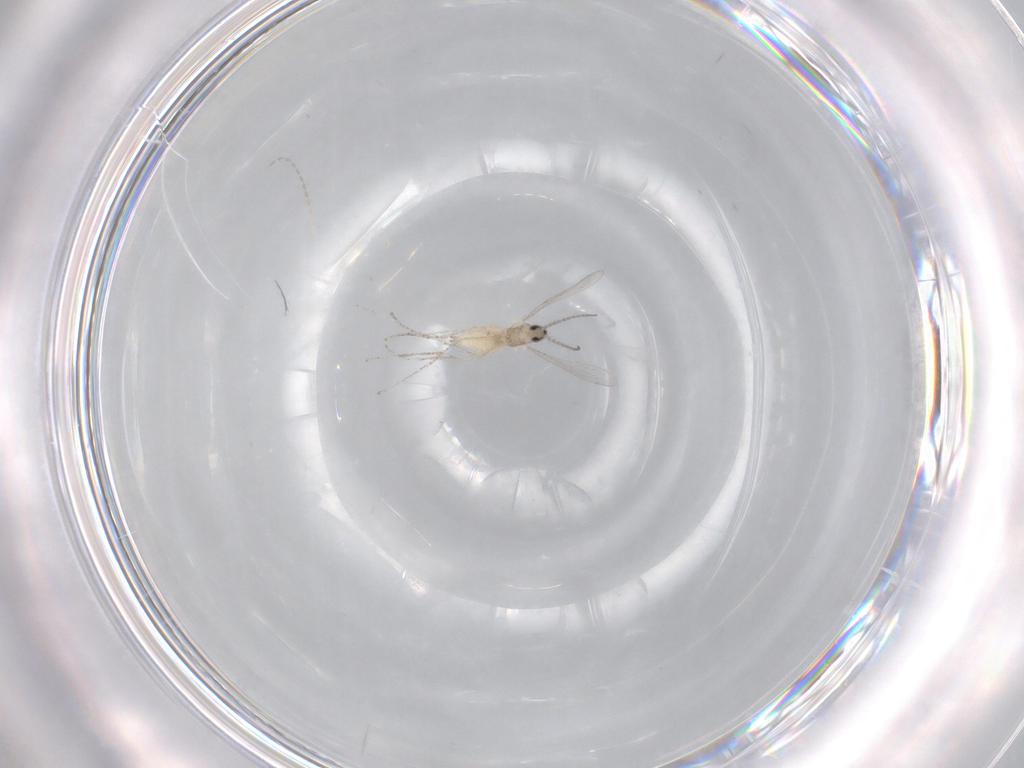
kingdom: Animalia
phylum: Arthropoda
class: Insecta
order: Diptera
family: Cecidomyiidae
